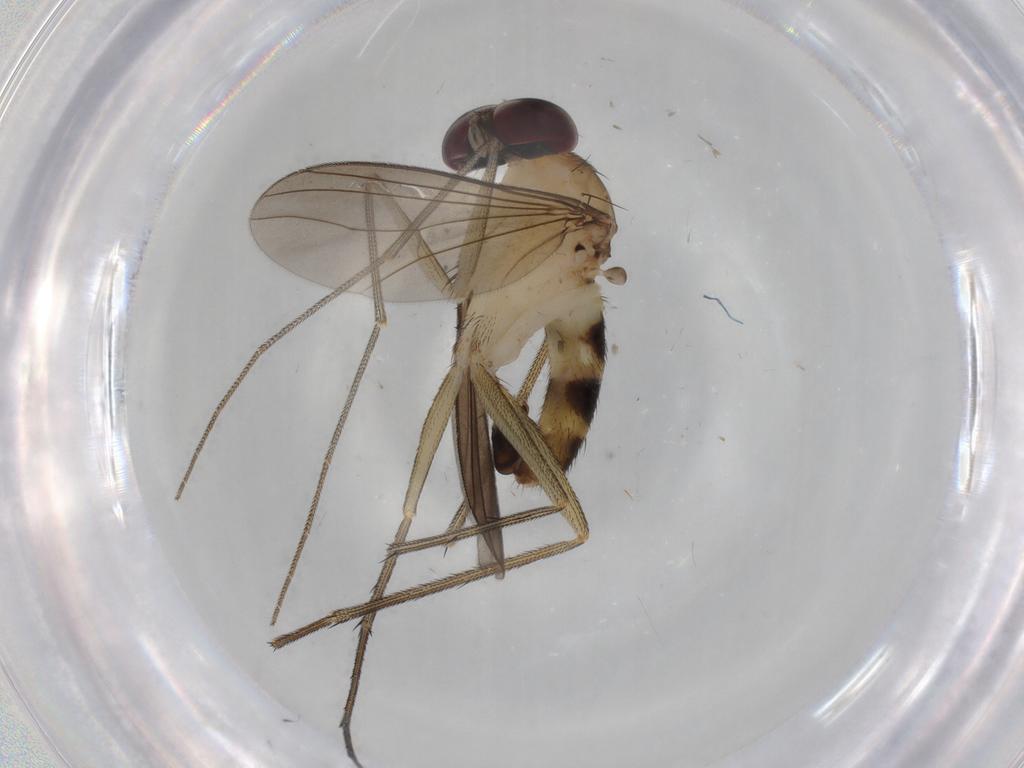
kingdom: Animalia
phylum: Arthropoda
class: Insecta
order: Diptera
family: Dolichopodidae
